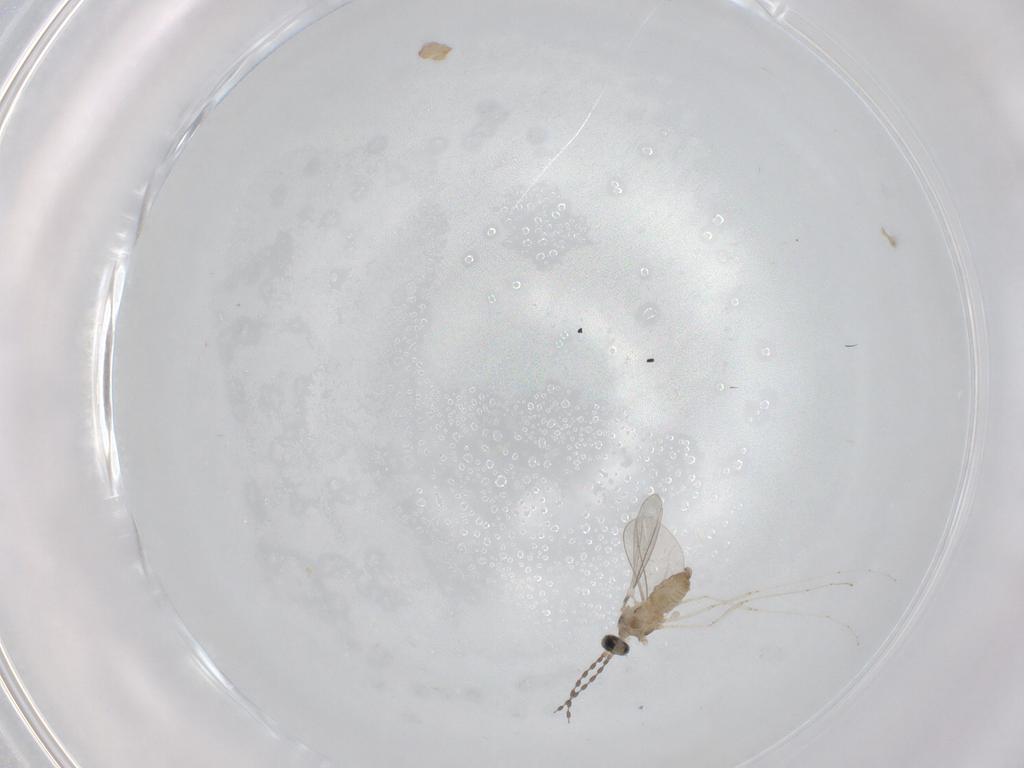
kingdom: Animalia
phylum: Arthropoda
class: Insecta
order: Diptera
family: Cecidomyiidae
